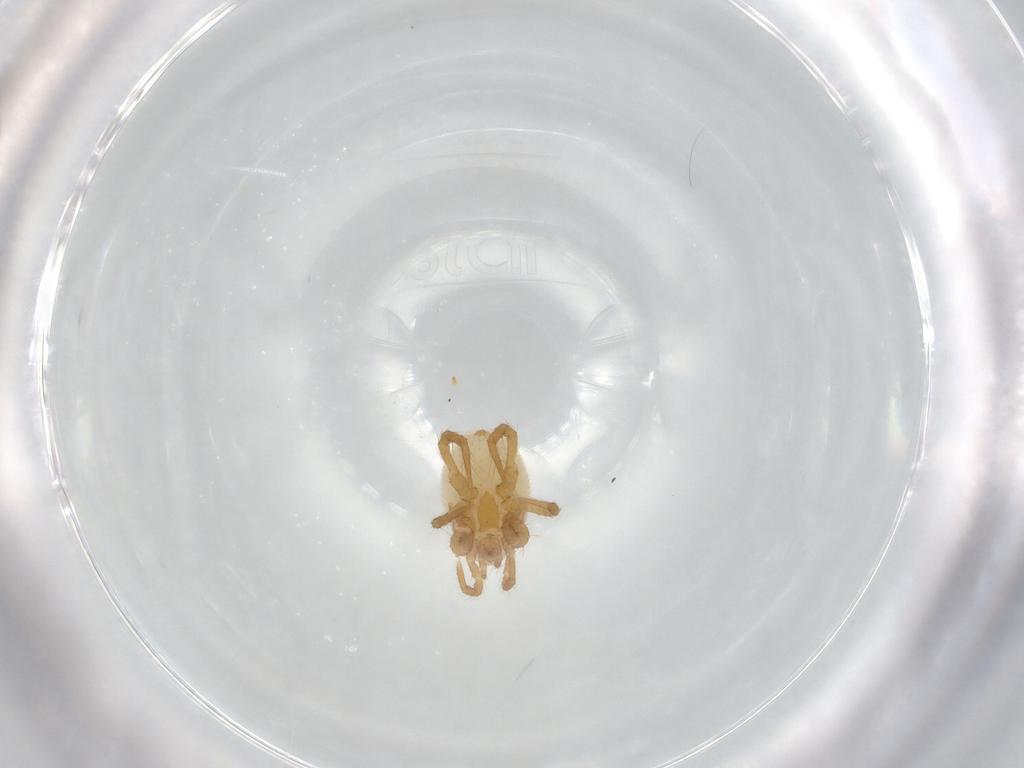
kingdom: Animalia
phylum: Arthropoda
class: Arachnida
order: Mesostigmata
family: Parasitidae
